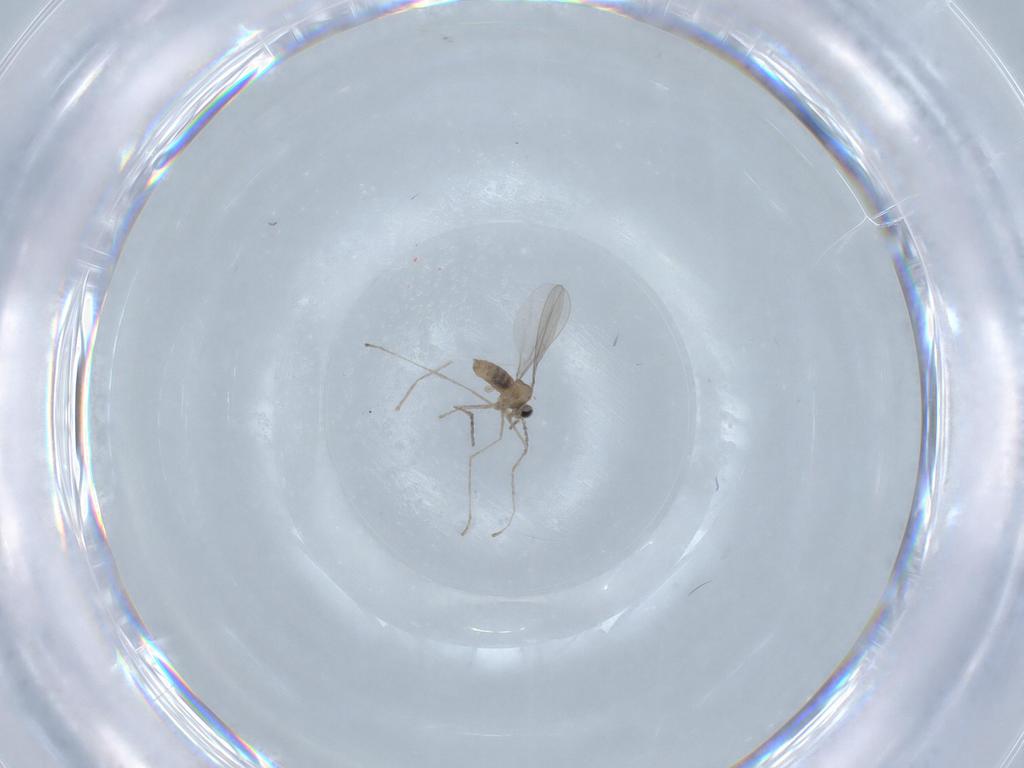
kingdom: Animalia
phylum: Arthropoda
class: Insecta
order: Diptera
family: Cecidomyiidae
